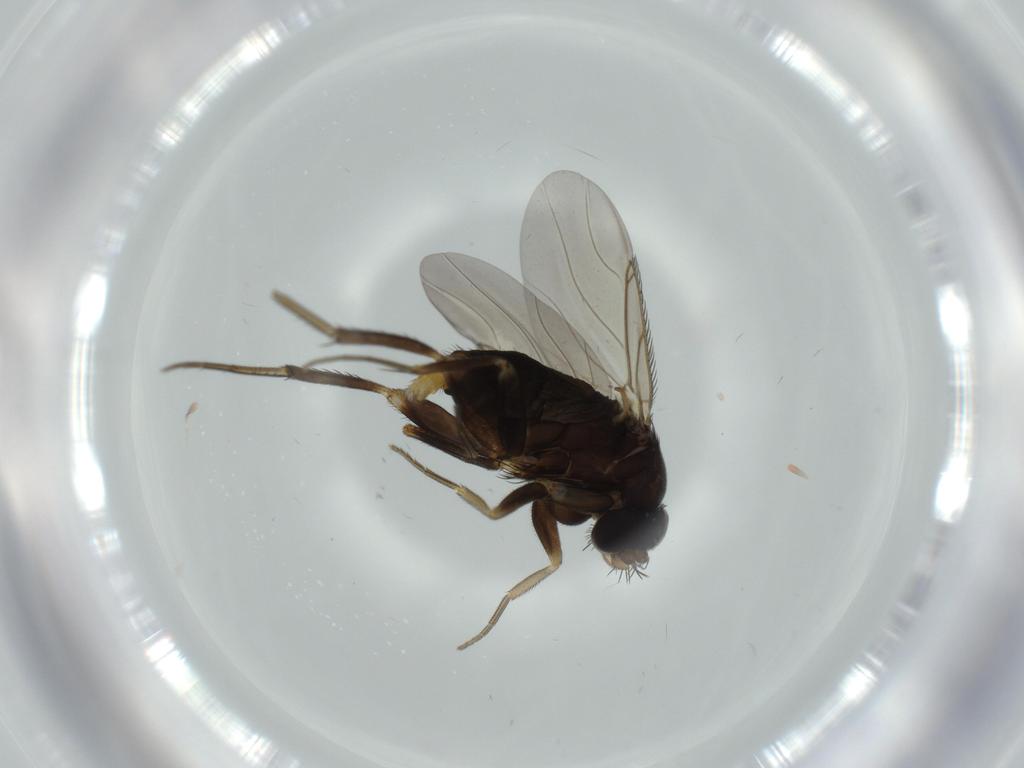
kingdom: Animalia
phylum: Arthropoda
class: Insecta
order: Diptera
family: Phoridae
